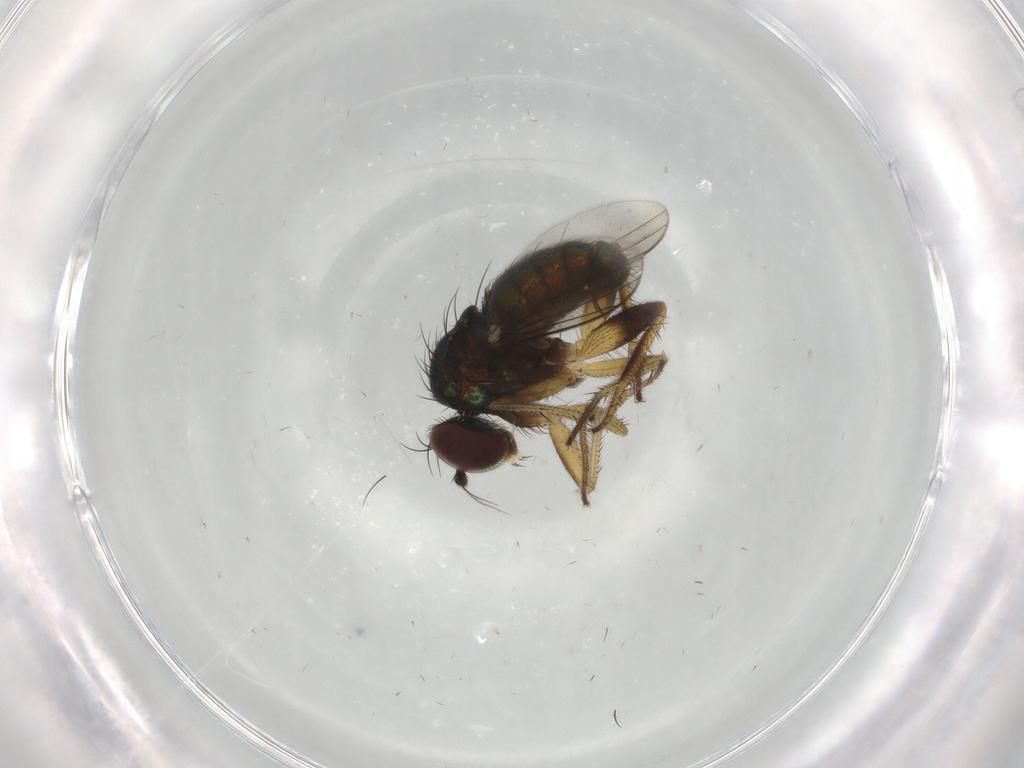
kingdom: Animalia
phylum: Arthropoda
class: Insecta
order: Diptera
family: Dolichopodidae
